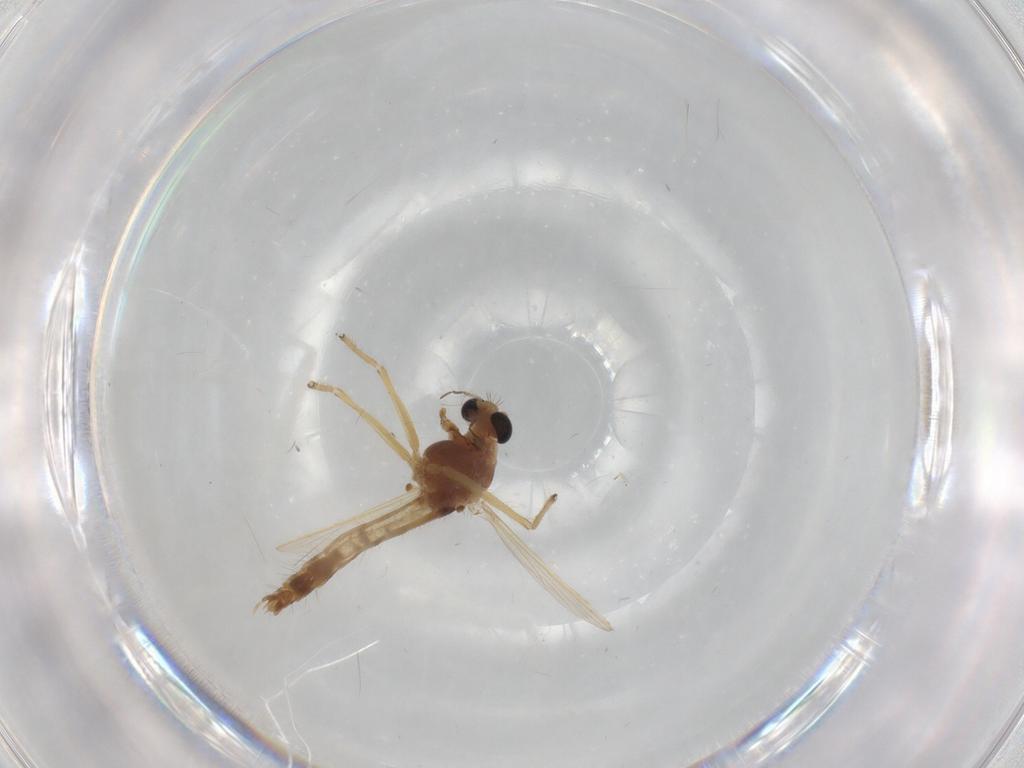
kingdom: Animalia
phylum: Arthropoda
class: Insecta
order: Diptera
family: Chironomidae
